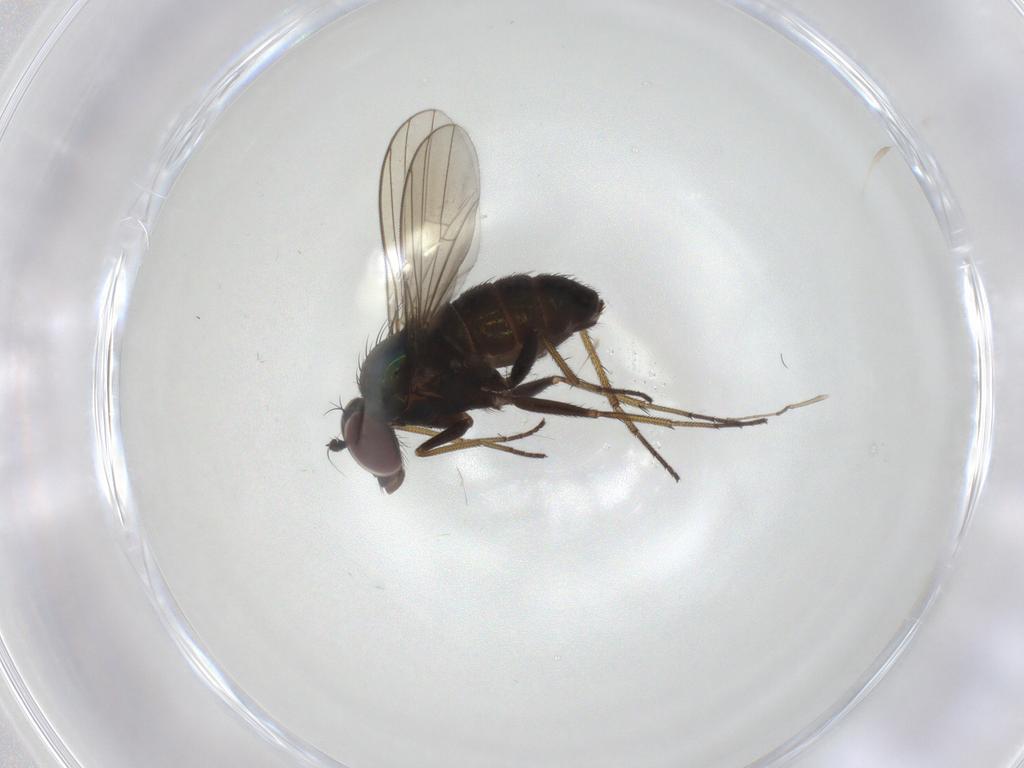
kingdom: Animalia
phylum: Arthropoda
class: Insecta
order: Diptera
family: Dolichopodidae
